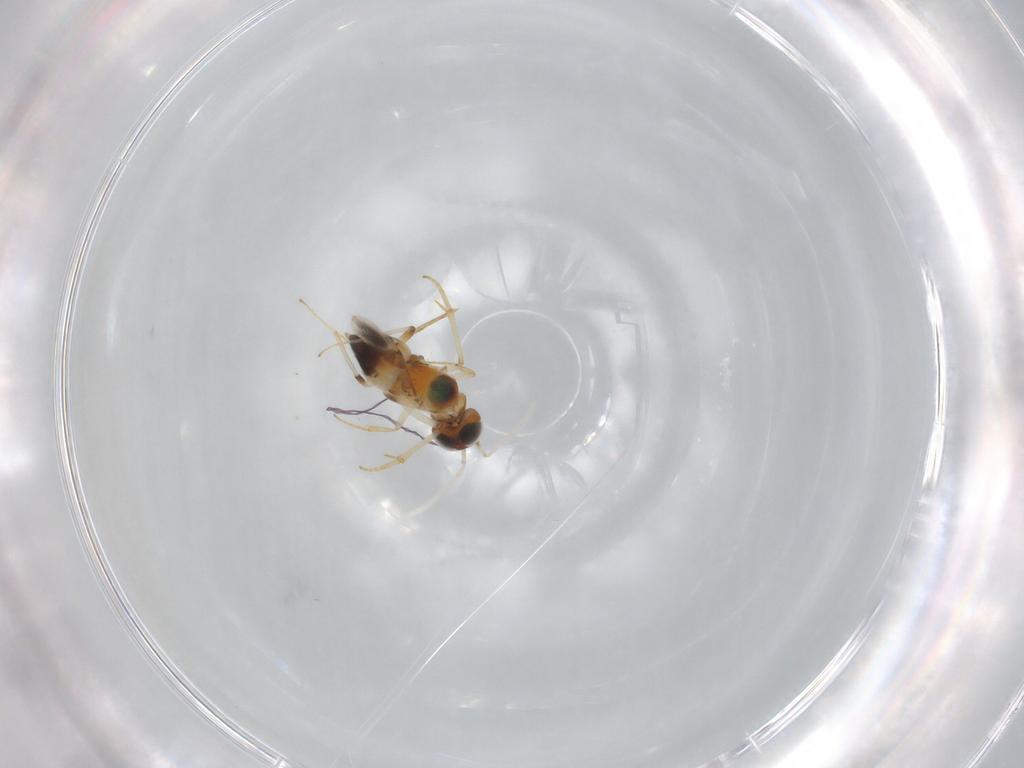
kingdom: Animalia
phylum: Arthropoda
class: Insecta
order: Hymenoptera
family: Encyrtidae
